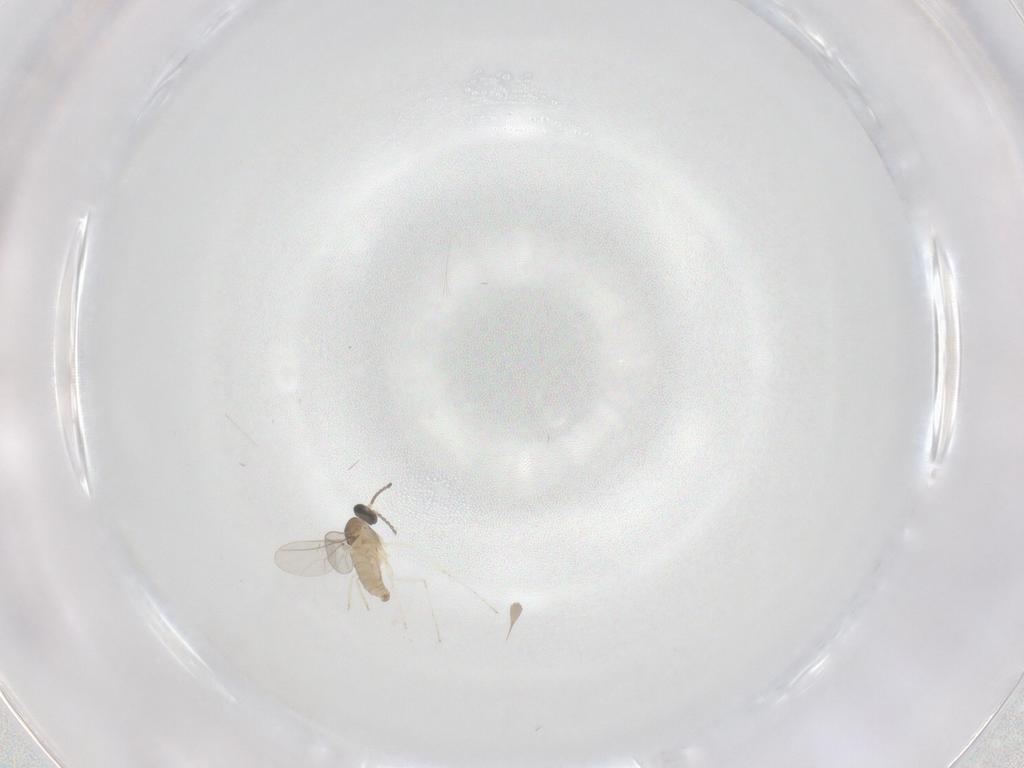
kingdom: Animalia
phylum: Arthropoda
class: Insecta
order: Diptera
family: Cecidomyiidae
